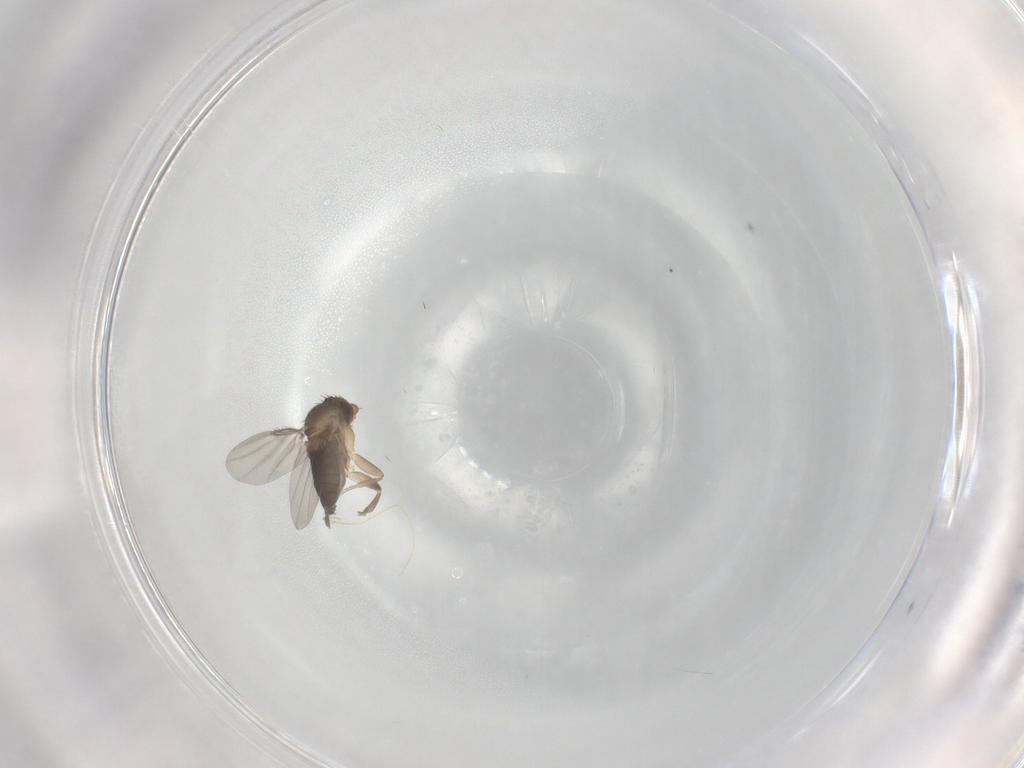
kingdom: Animalia
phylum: Arthropoda
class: Insecta
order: Diptera
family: Phoridae
